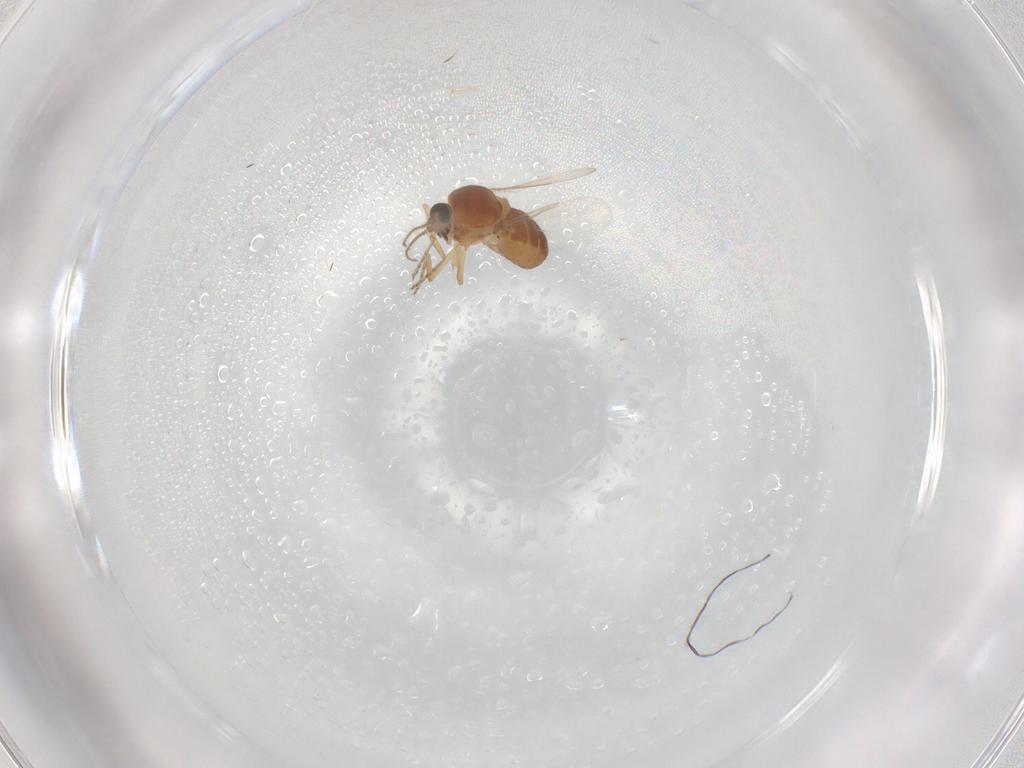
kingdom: Animalia
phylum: Arthropoda
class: Insecta
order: Diptera
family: Ceratopogonidae
